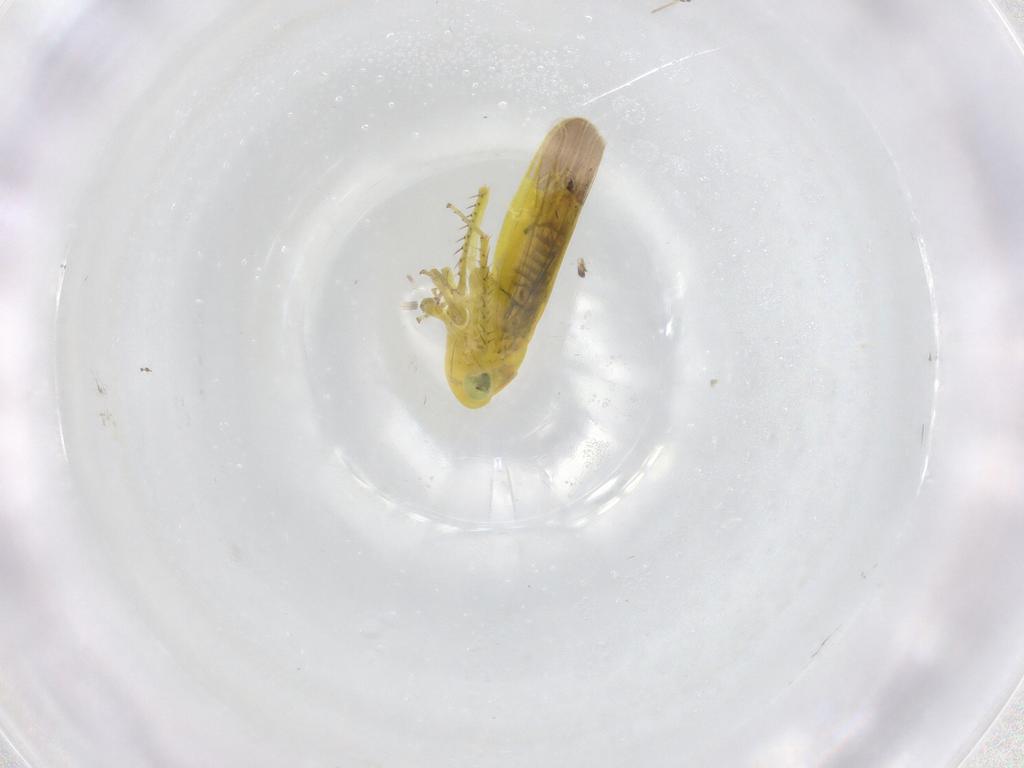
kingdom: Animalia
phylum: Arthropoda
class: Insecta
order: Hemiptera
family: Cicadellidae
